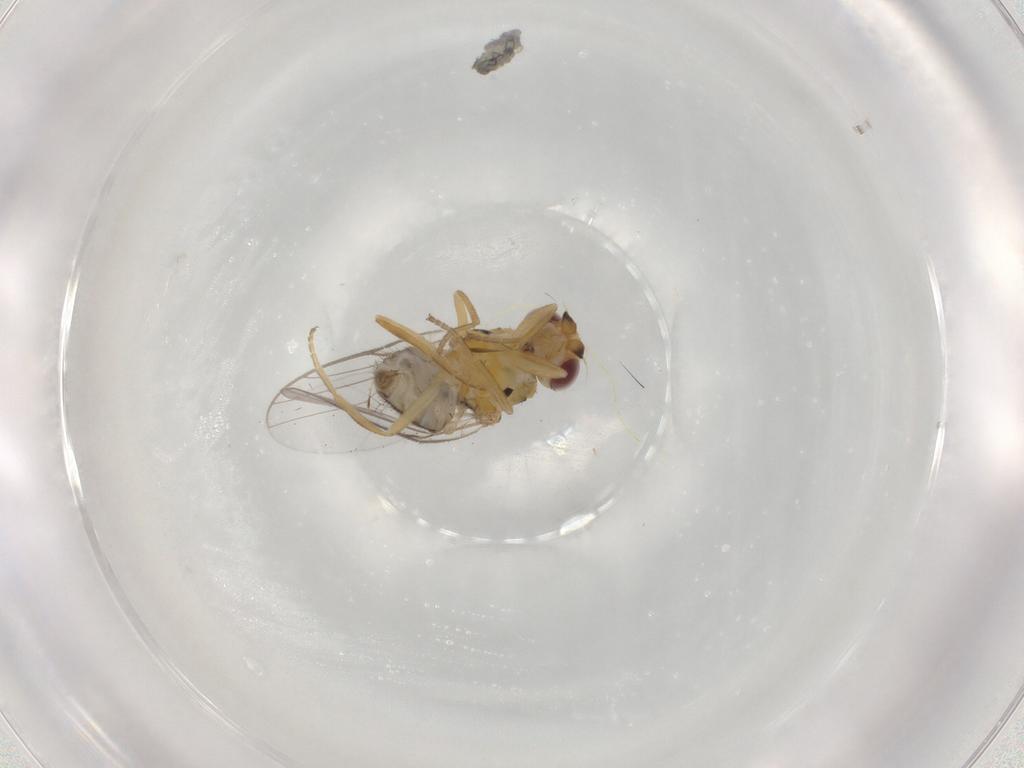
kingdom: Animalia
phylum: Arthropoda
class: Insecta
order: Diptera
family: Chloropidae
